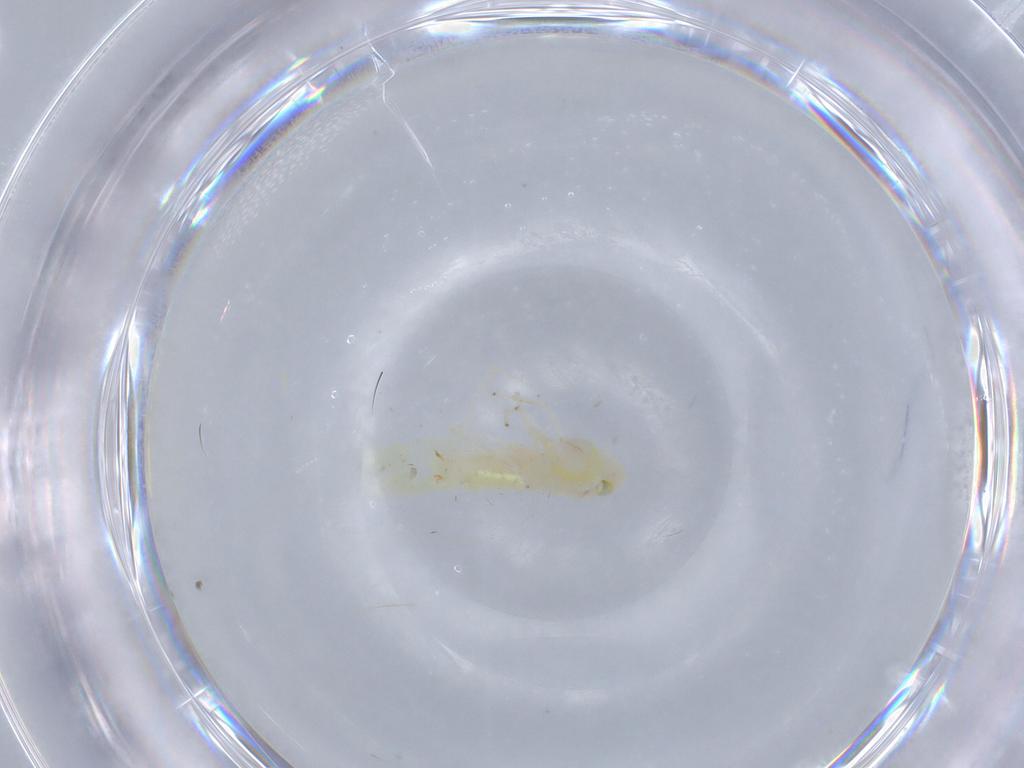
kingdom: Animalia
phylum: Arthropoda
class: Insecta
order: Hemiptera
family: Cicadellidae
